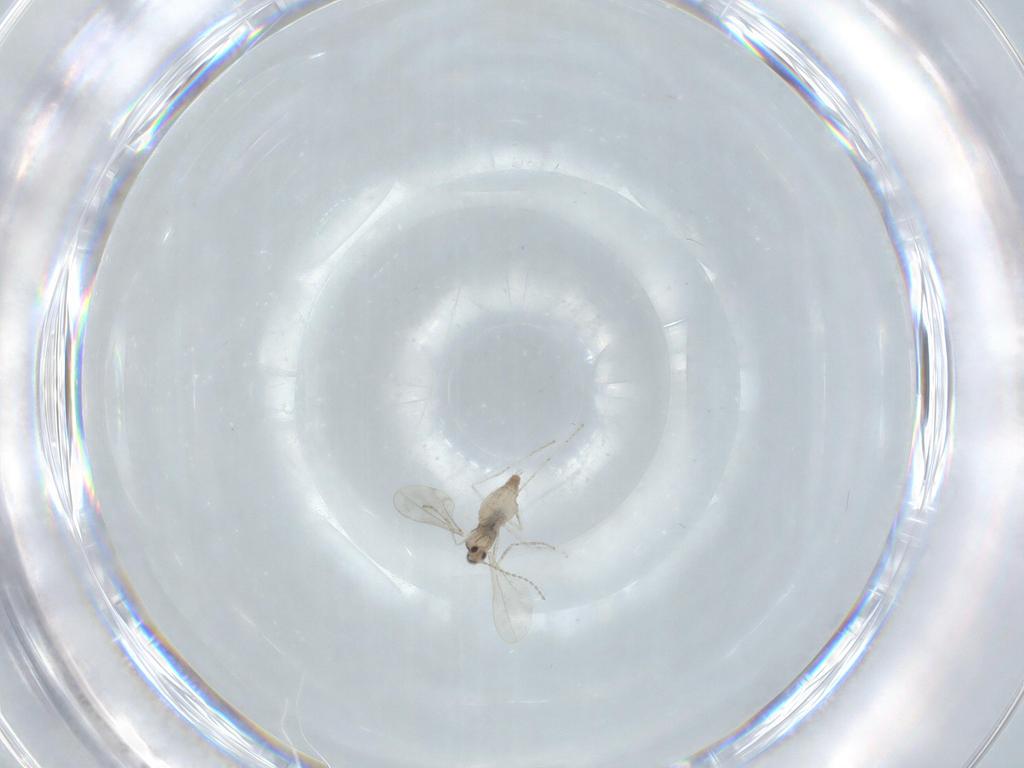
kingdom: Animalia
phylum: Arthropoda
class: Insecta
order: Diptera
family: Cecidomyiidae
